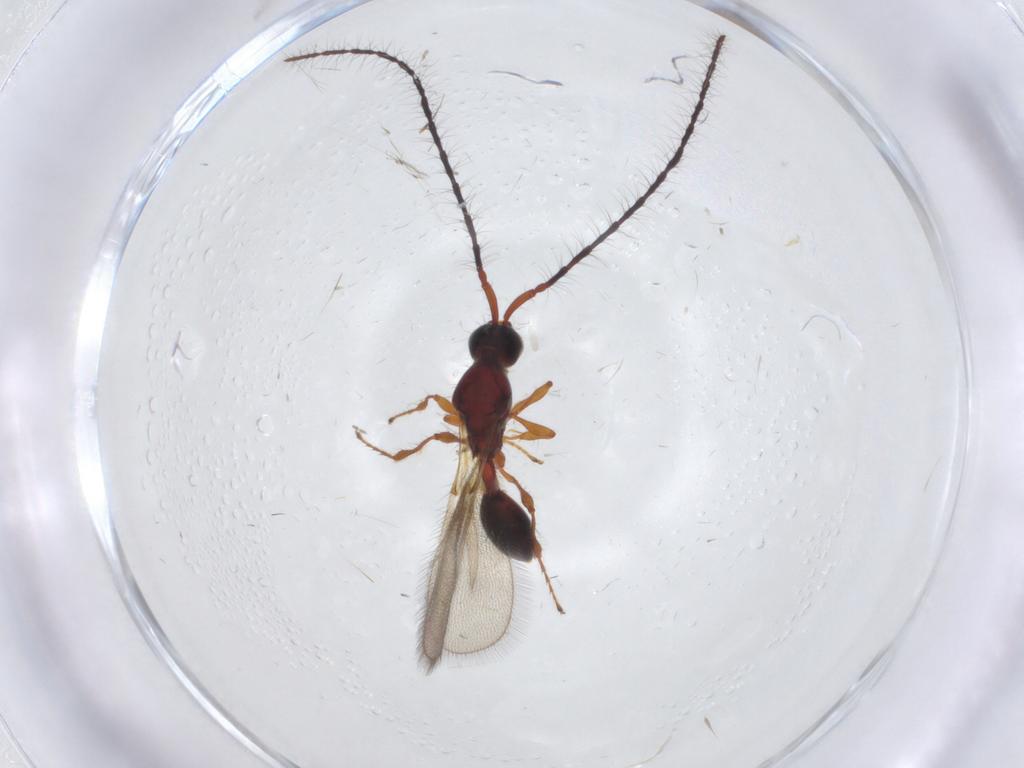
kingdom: Animalia
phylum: Arthropoda
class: Insecta
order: Hymenoptera
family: Diapriidae
